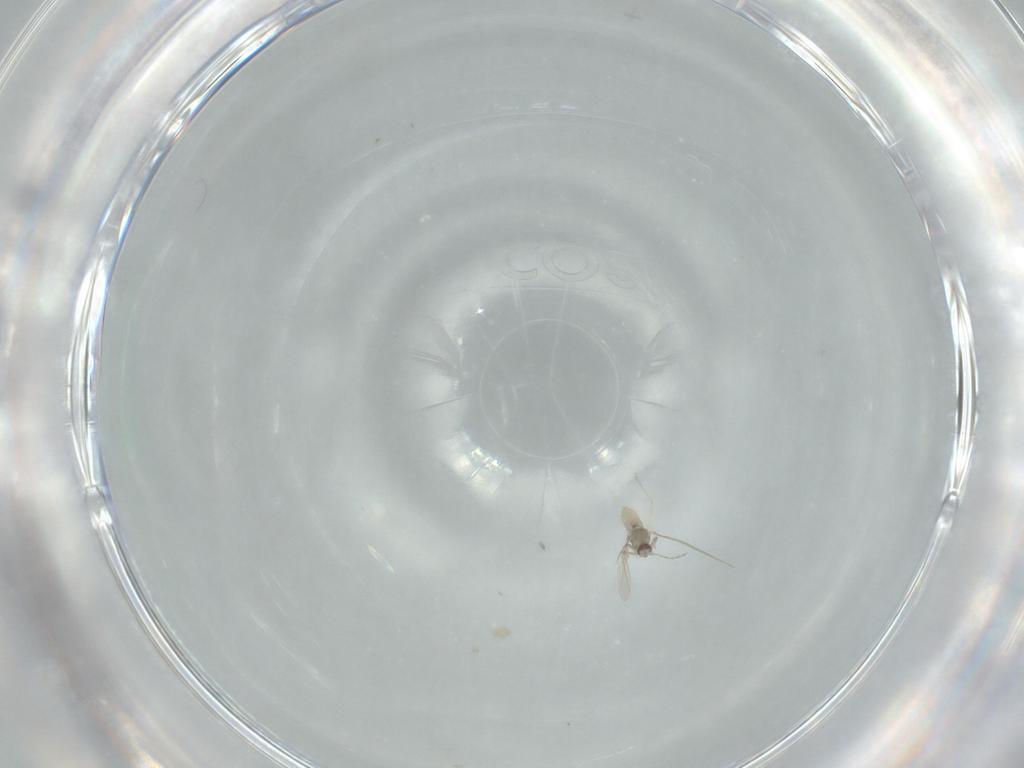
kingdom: Animalia
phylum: Arthropoda
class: Insecta
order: Diptera
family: Cecidomyiidae
